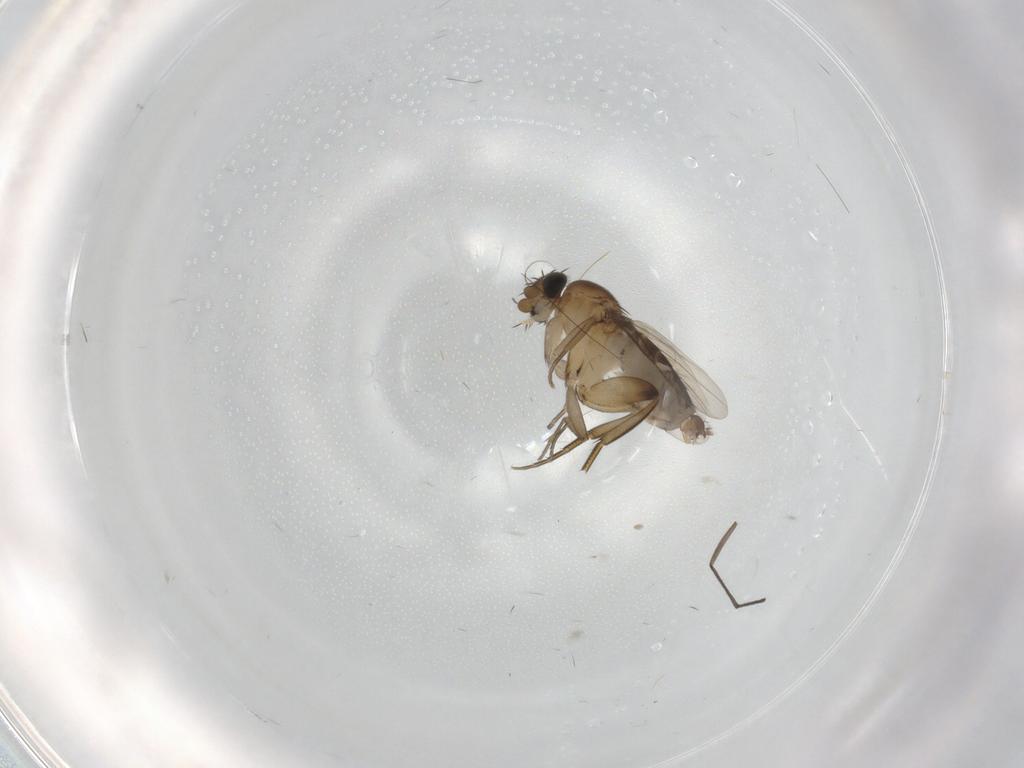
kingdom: Animalia
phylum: Arthropoda
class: Insecta
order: Diptera
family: Phoridae
